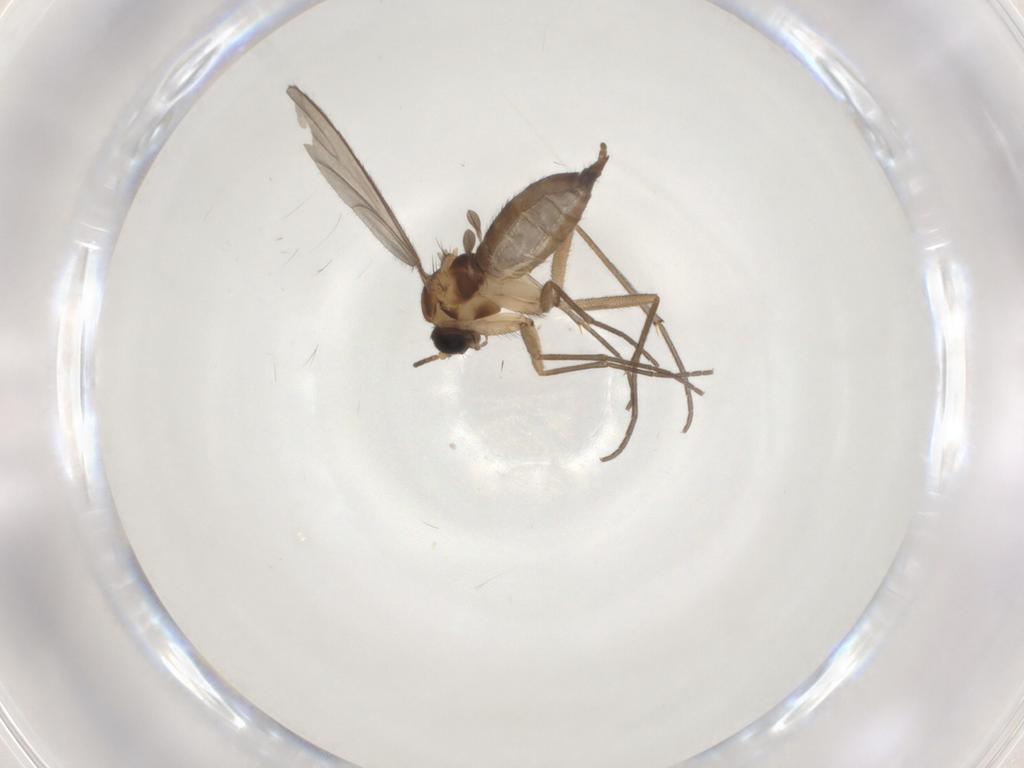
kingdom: Animalia
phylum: Arthropoda
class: Insecta
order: Diptera
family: Sciaridae
